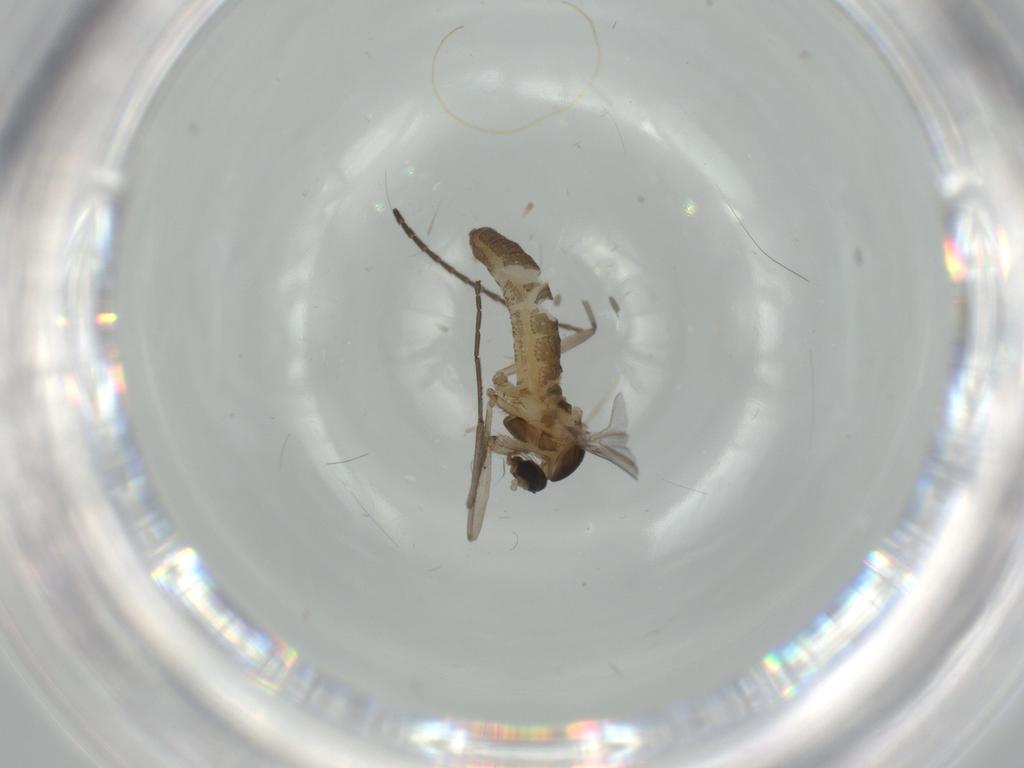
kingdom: Animalia
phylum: Arthropoda
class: Insecta
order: Diptera
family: Cecidomyiidae
